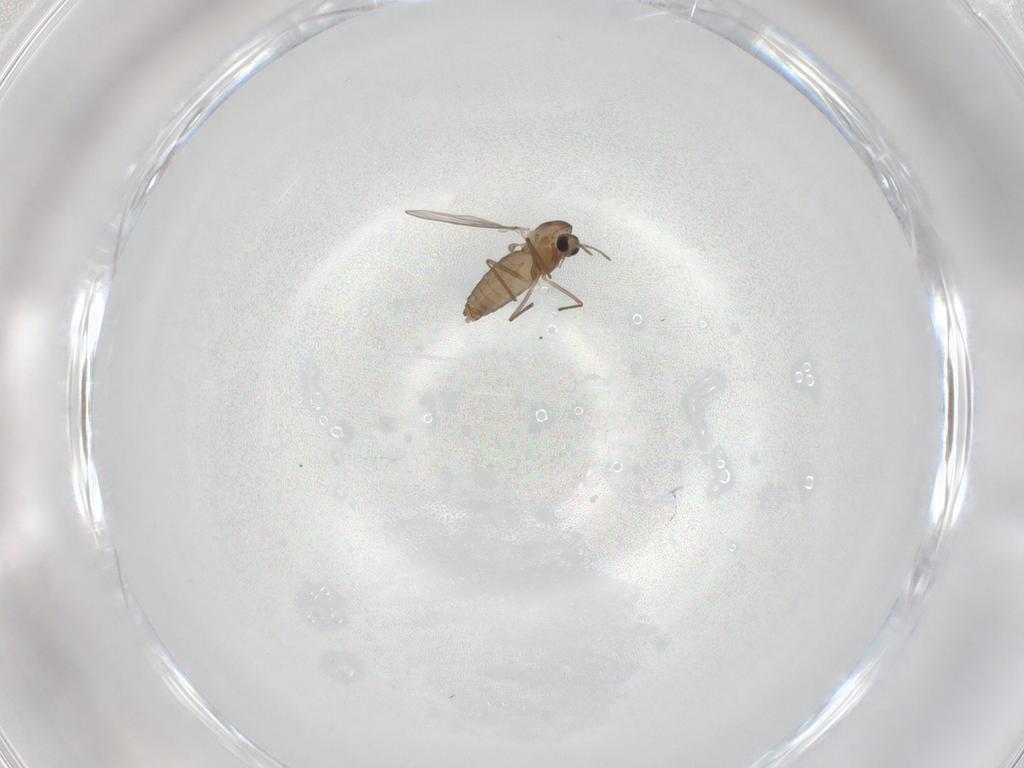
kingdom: Animalia
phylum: Arthropoda
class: Insecta
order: Diptera
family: Chironomidae
